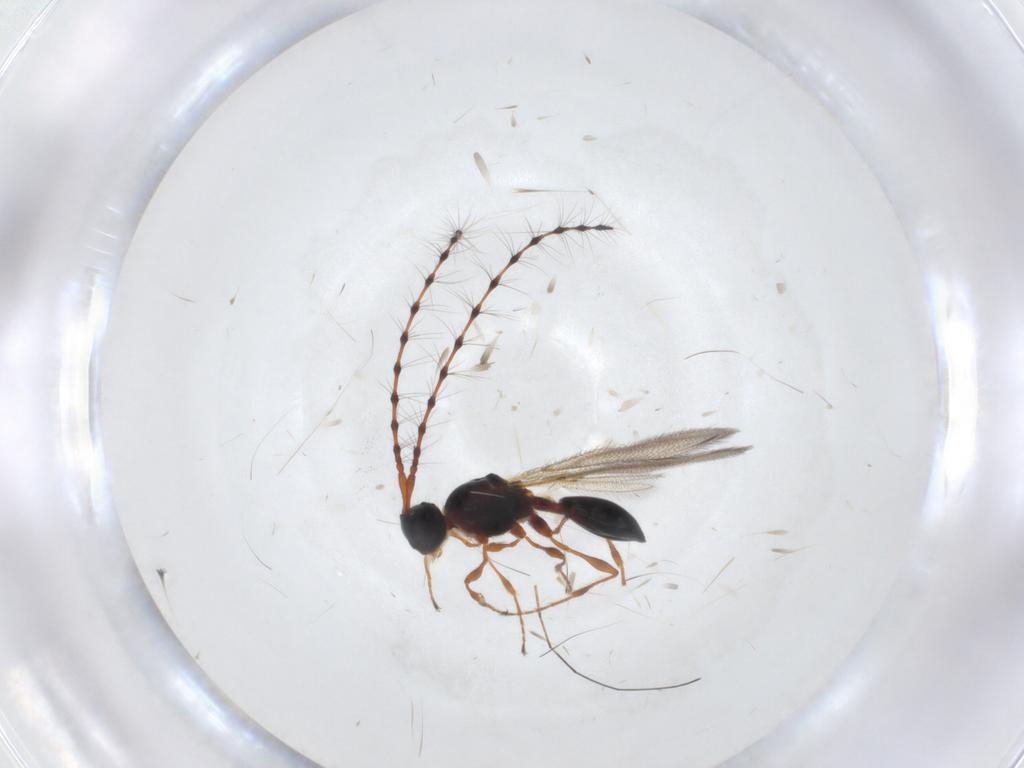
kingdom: Animalia
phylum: Arthropoda
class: Insecta
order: Hymenoptera
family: Diapriidae
